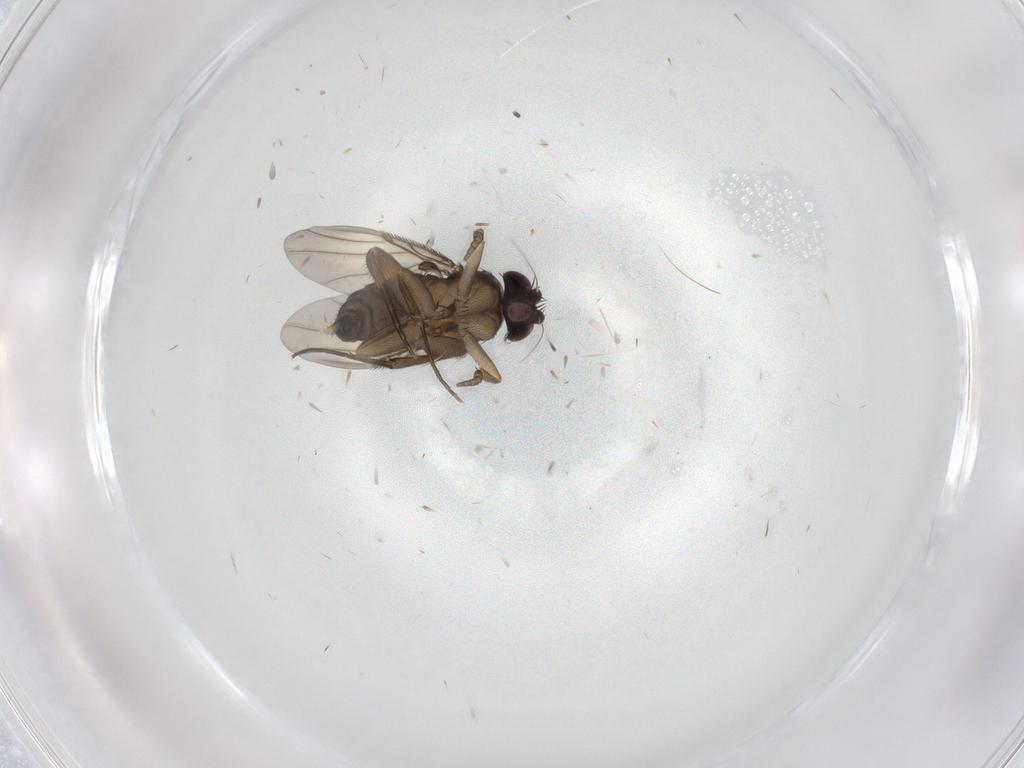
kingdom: Animalia
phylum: Arthropoda
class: Insecta
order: Diptera
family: Phoridae
